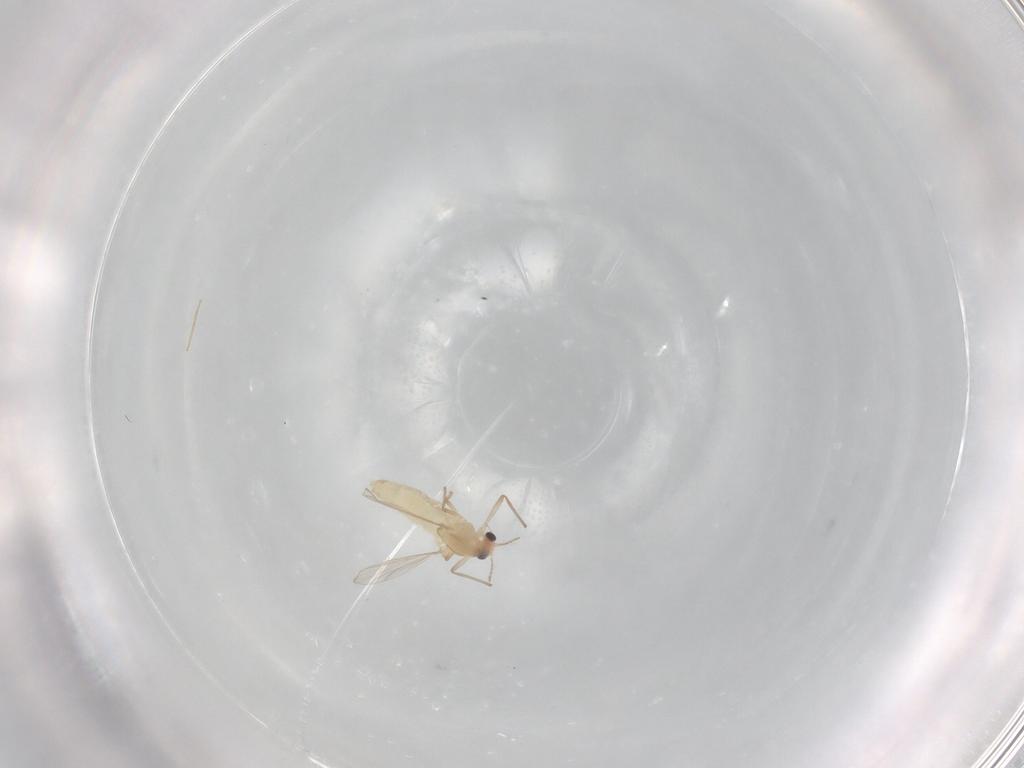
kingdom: Animalia
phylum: Arthropoda
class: Insecta
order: Diptera
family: Chironomidae
